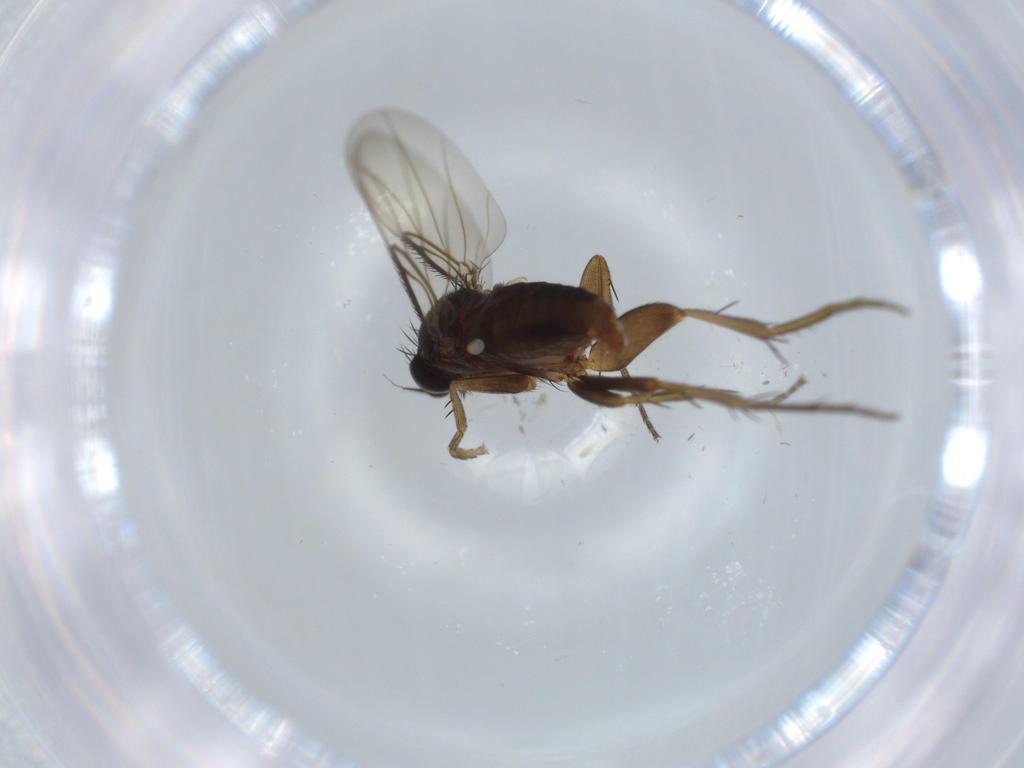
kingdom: Animalia
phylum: Arthropoda
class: Insecta
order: Diptera
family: Phoridae
